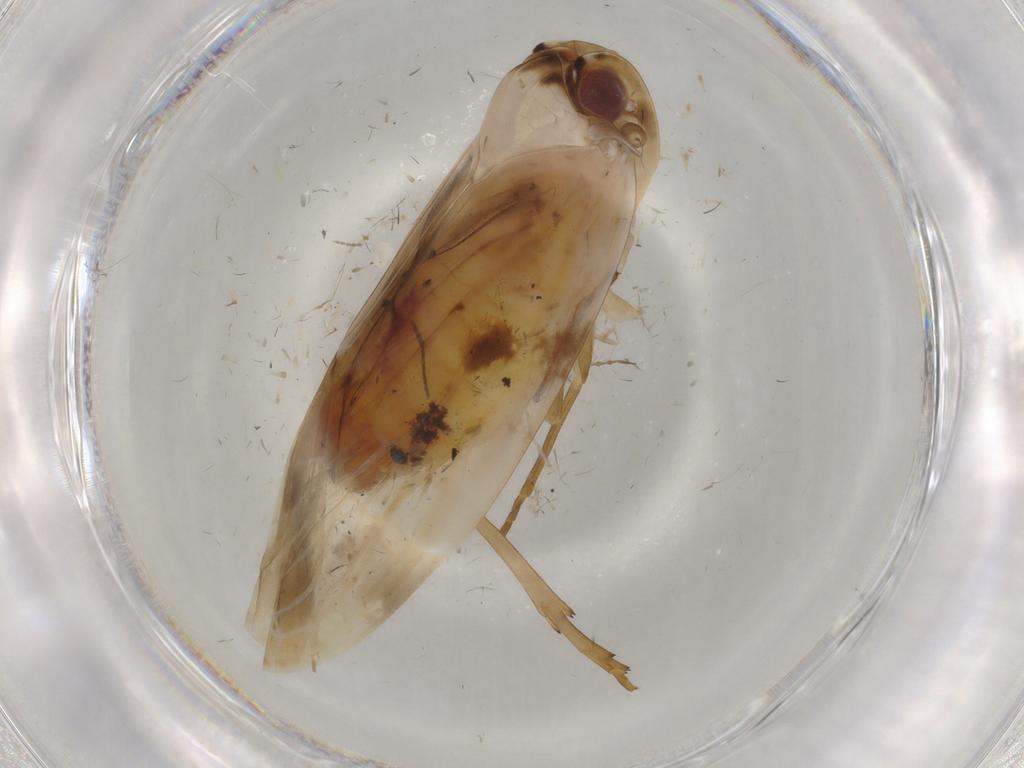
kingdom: Animalia
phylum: Arthropoda
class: Insecta
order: Hemiptera
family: Achilidae
